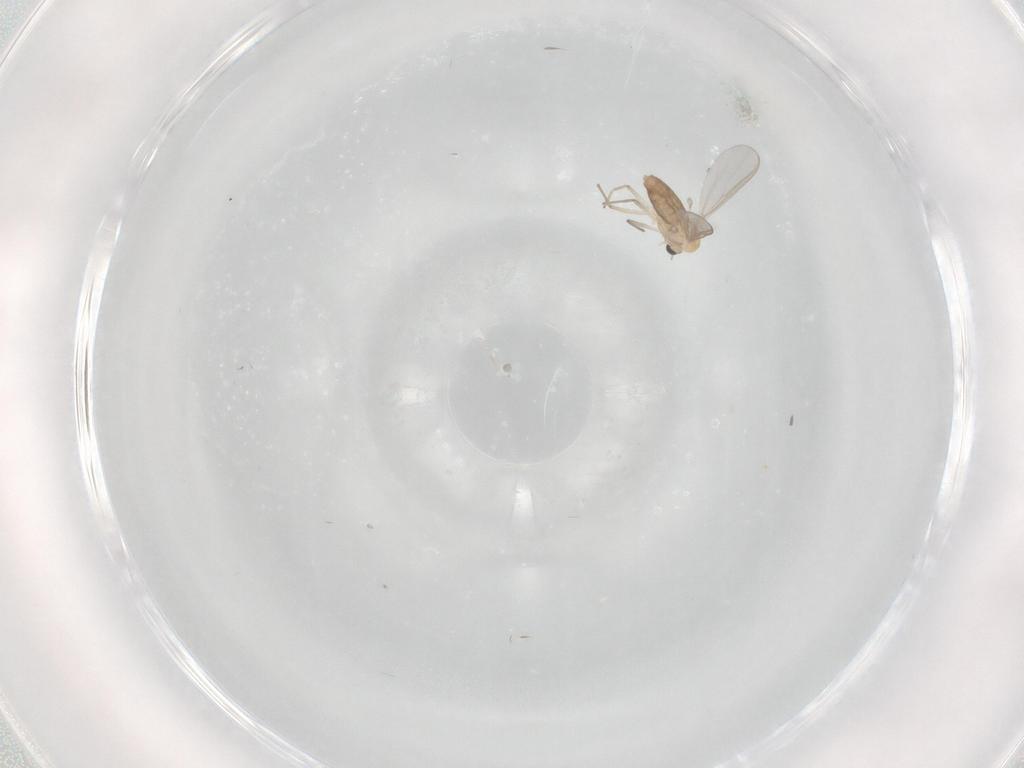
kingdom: Animalia
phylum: Arthropoda
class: Insecta
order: Diptera
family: Chironomidae
